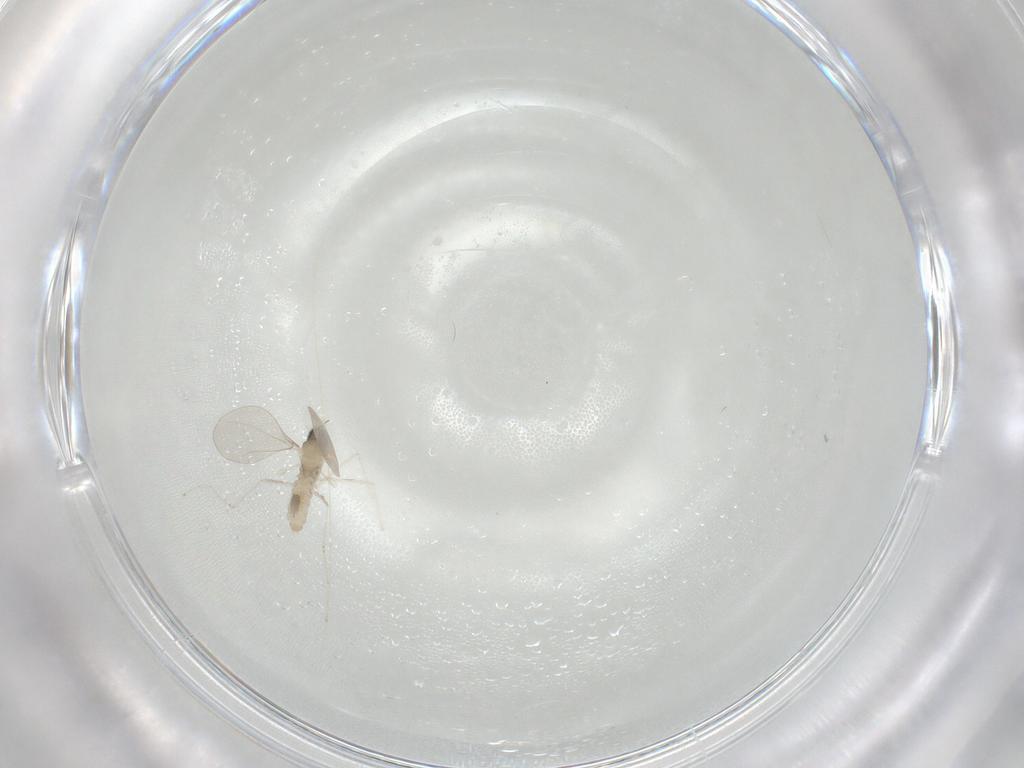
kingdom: Animalia
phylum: Arthropoda
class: Insecta
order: Diptera
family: Cecidomyiidae
